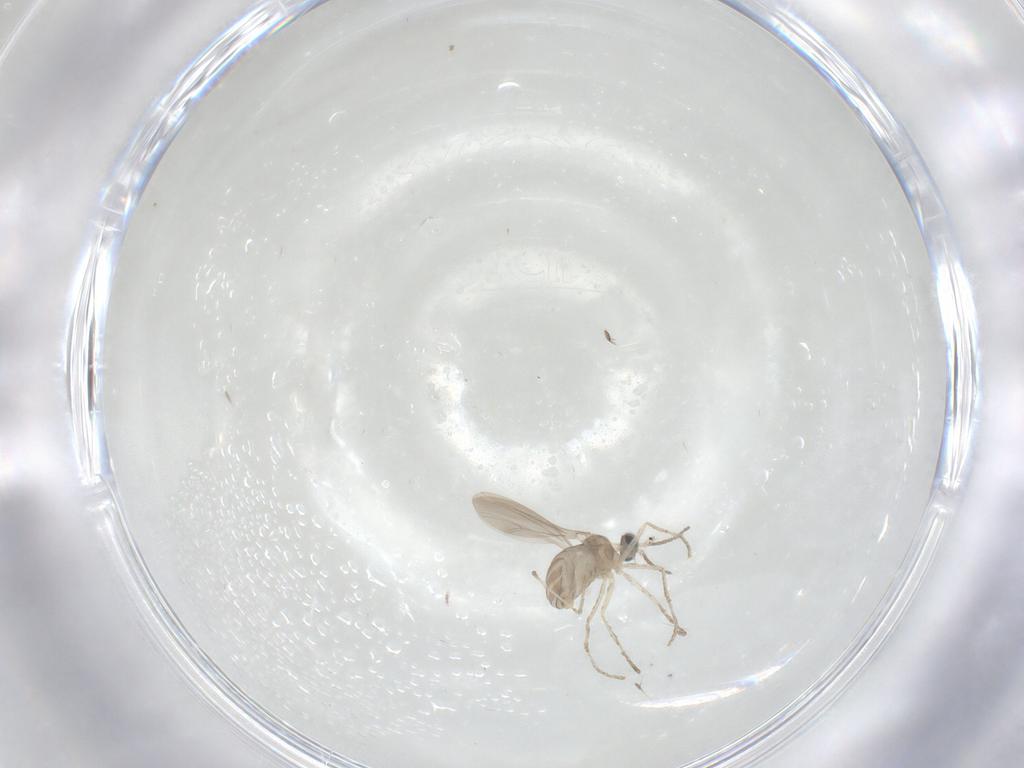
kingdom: Animalia
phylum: Arthropoda
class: Insecta
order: Diptera
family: Phoridae
